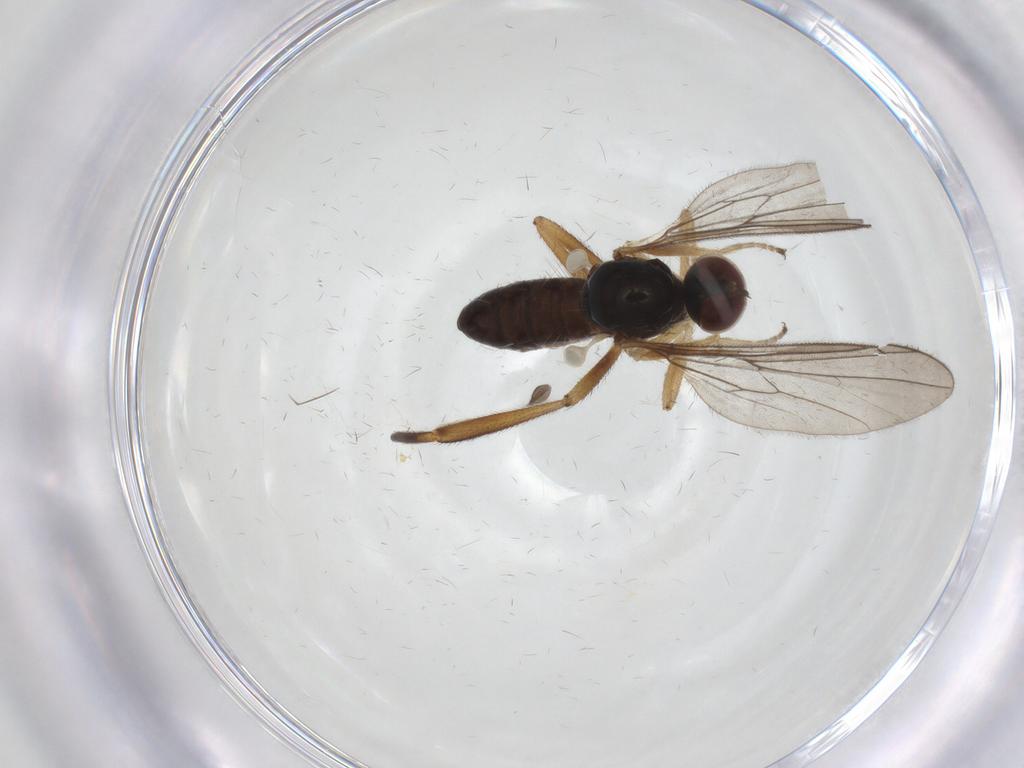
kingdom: Animalia
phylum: Arthropoda
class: Insecta
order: Diptera
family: Hybotidae
